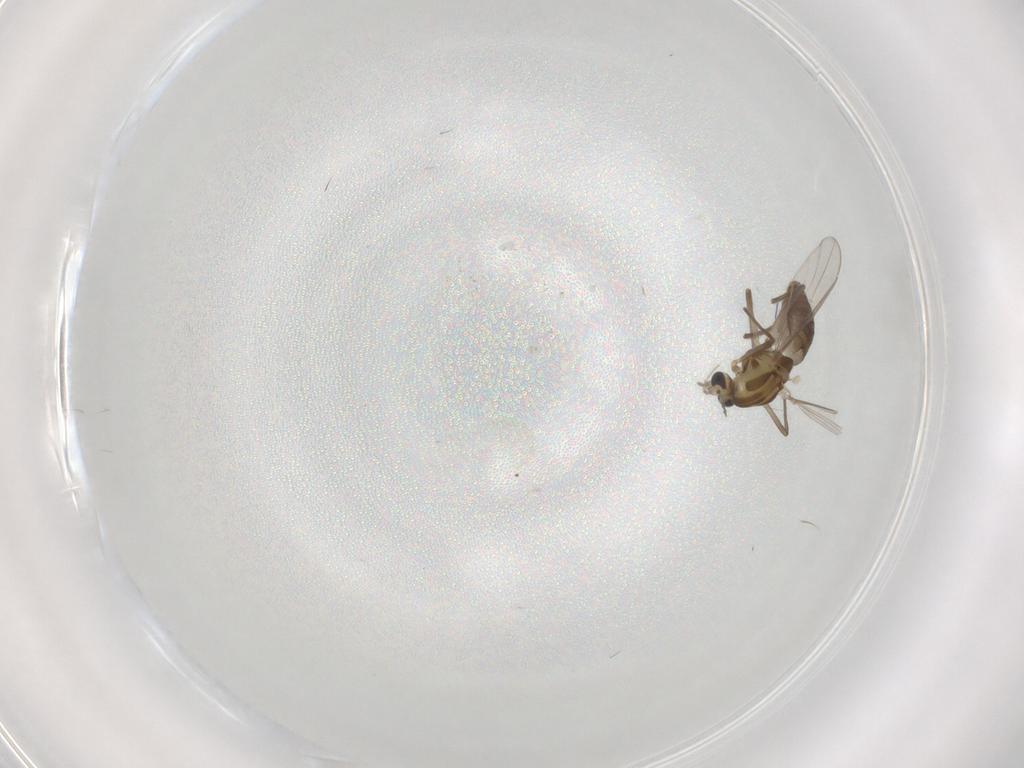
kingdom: Animalia
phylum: Arthropoda
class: Insecta
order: Diptera
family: Chironomidae
